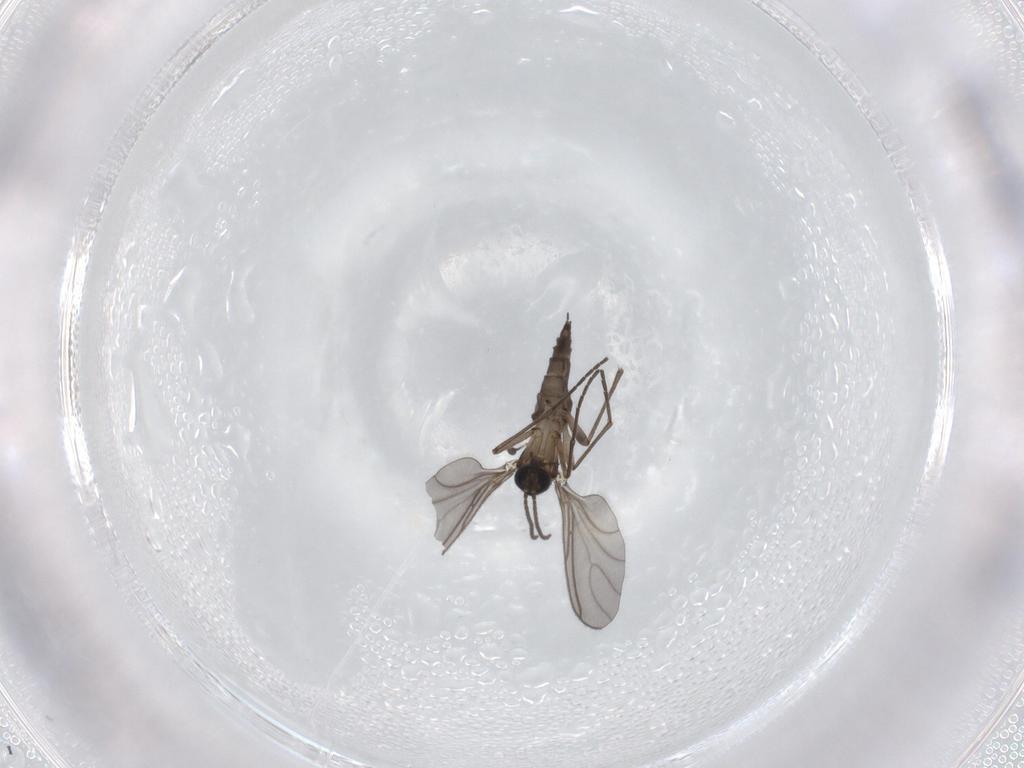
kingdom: Animalia
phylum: Arthropoda
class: Insecta
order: Diptera
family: Sciaridae
